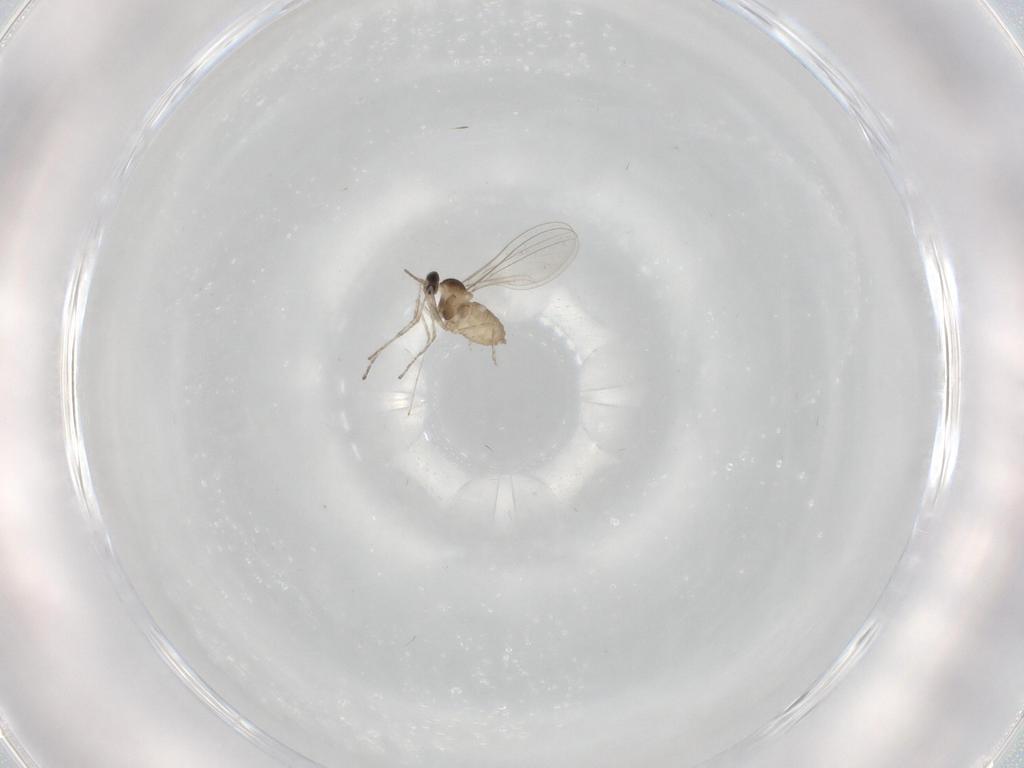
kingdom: Animalia
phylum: Arthropoda
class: Insecta
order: Diptera
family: Cecidomyiidae
